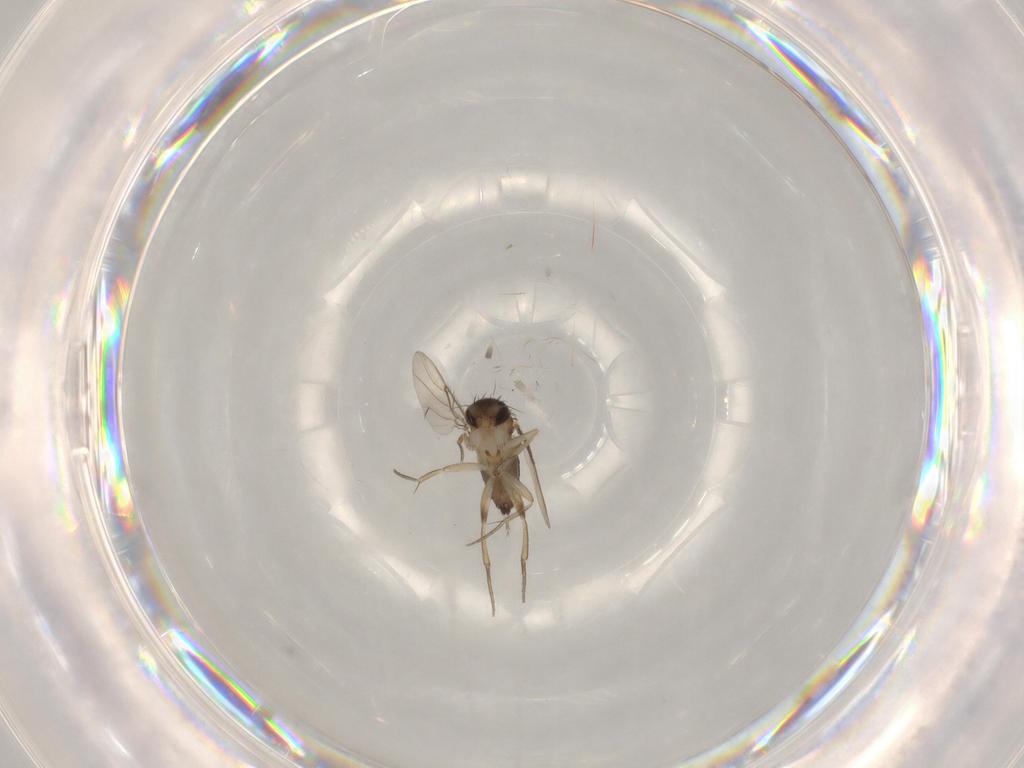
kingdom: Animalia
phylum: Arthropoda
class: Insecta
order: Diptera
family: Phoridae
